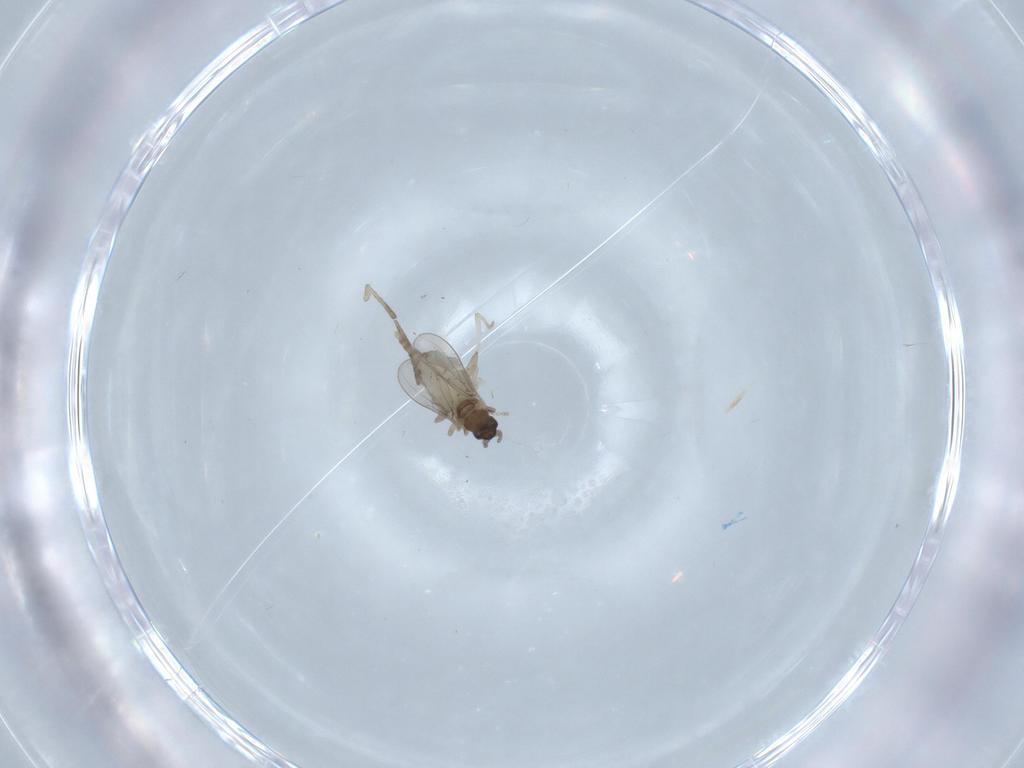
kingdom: Animalia
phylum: Arthropoda
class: Insecta
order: Diptera
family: Cecidomyiidae
